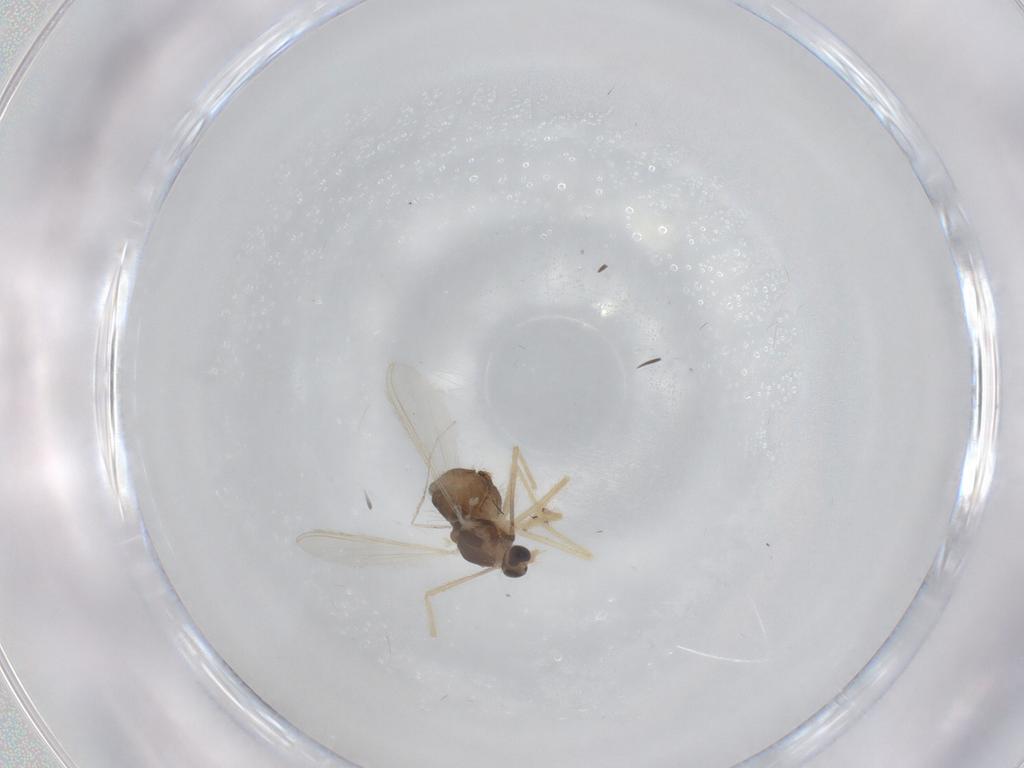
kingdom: Animalia
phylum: Arthropoda
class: Insecta
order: Diptera
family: Chironomidae
